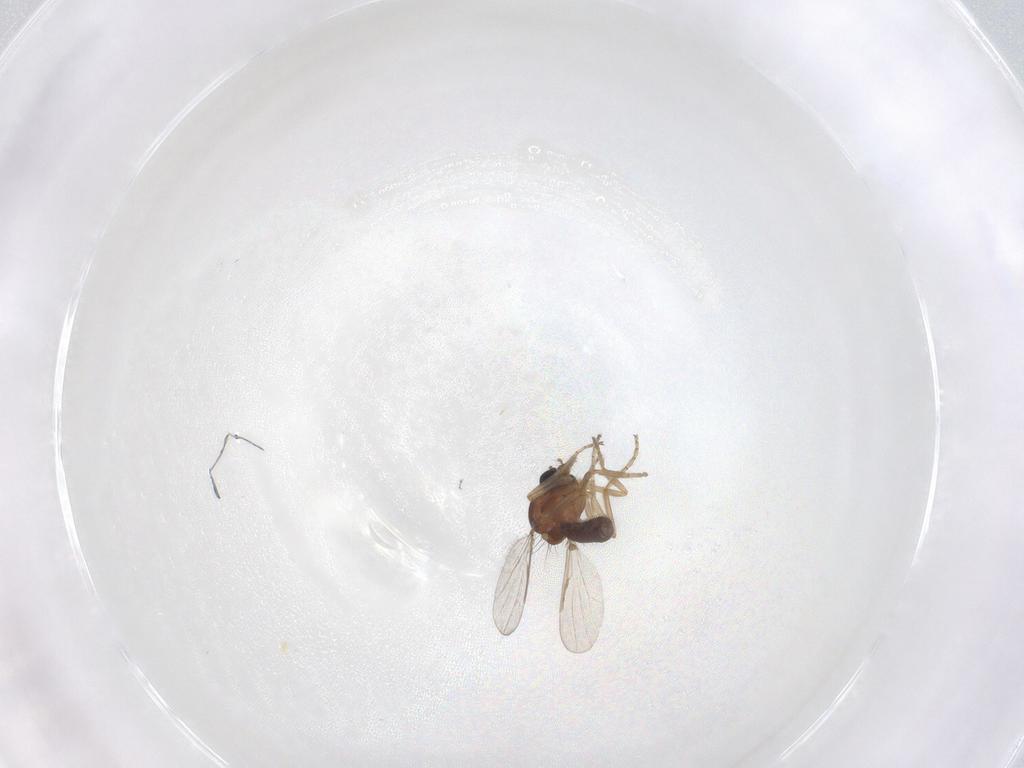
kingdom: Animalia
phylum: Arthropoda
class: Insecta
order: Diptera
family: Ceratopogonidae
